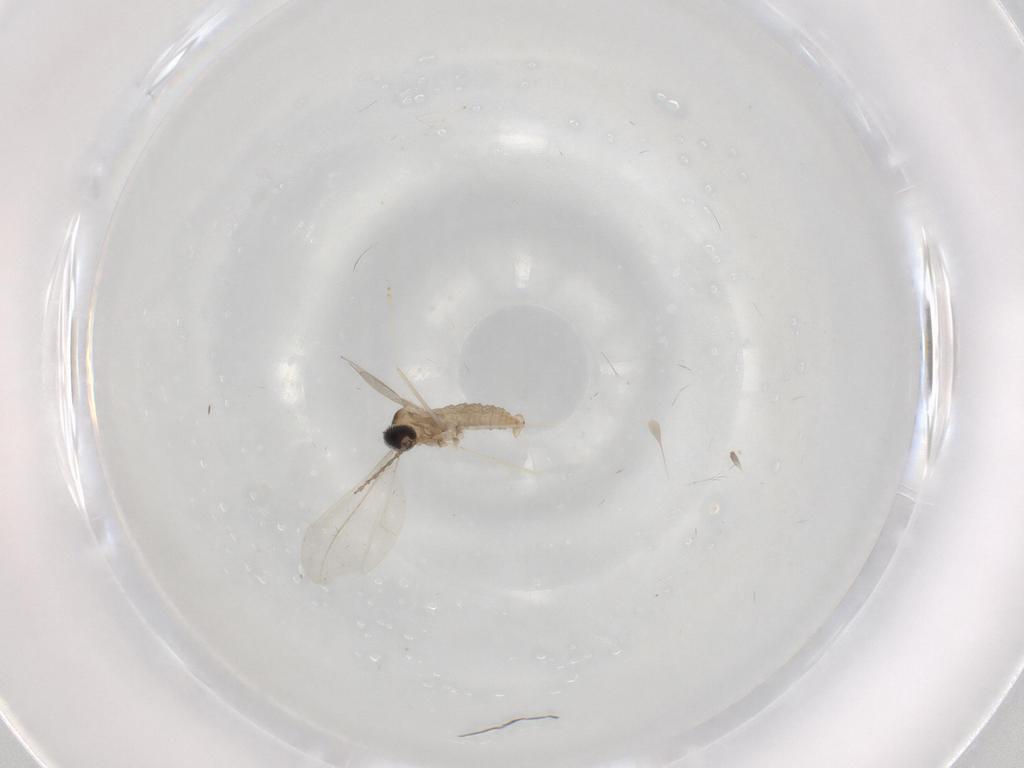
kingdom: Animalia
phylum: Arthropoda
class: Insecta
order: Diptera
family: Cecidomyiidae
